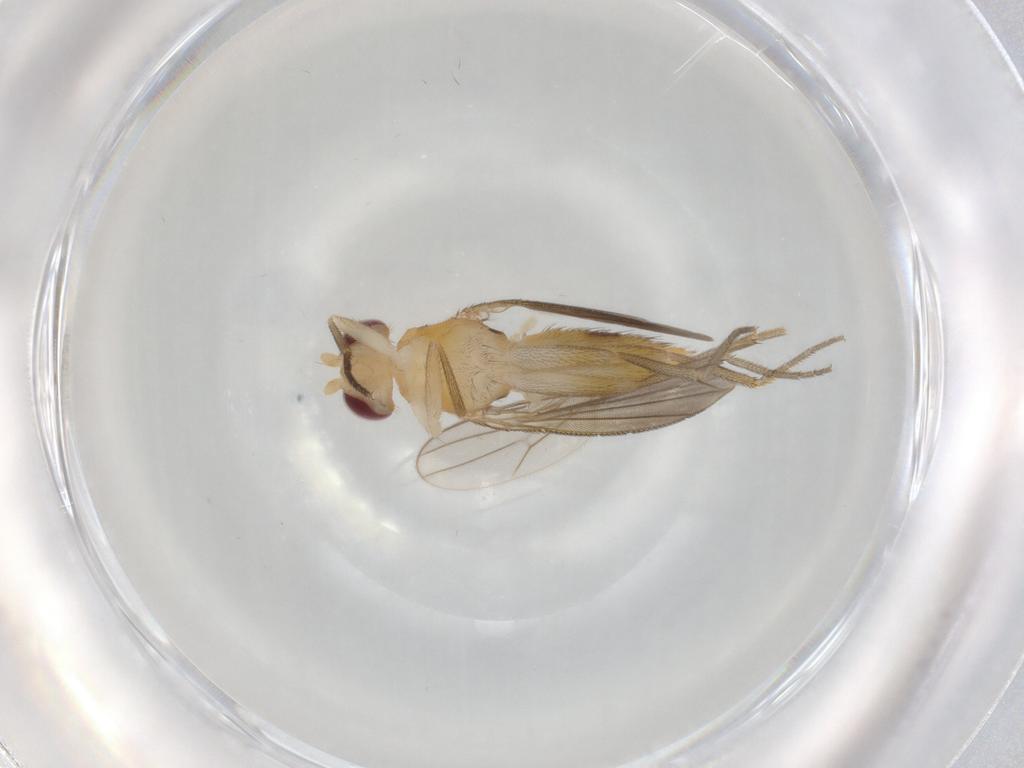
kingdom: Animalia
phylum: Arthropoda
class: Insecta
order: Diptera
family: Agromyzidae
